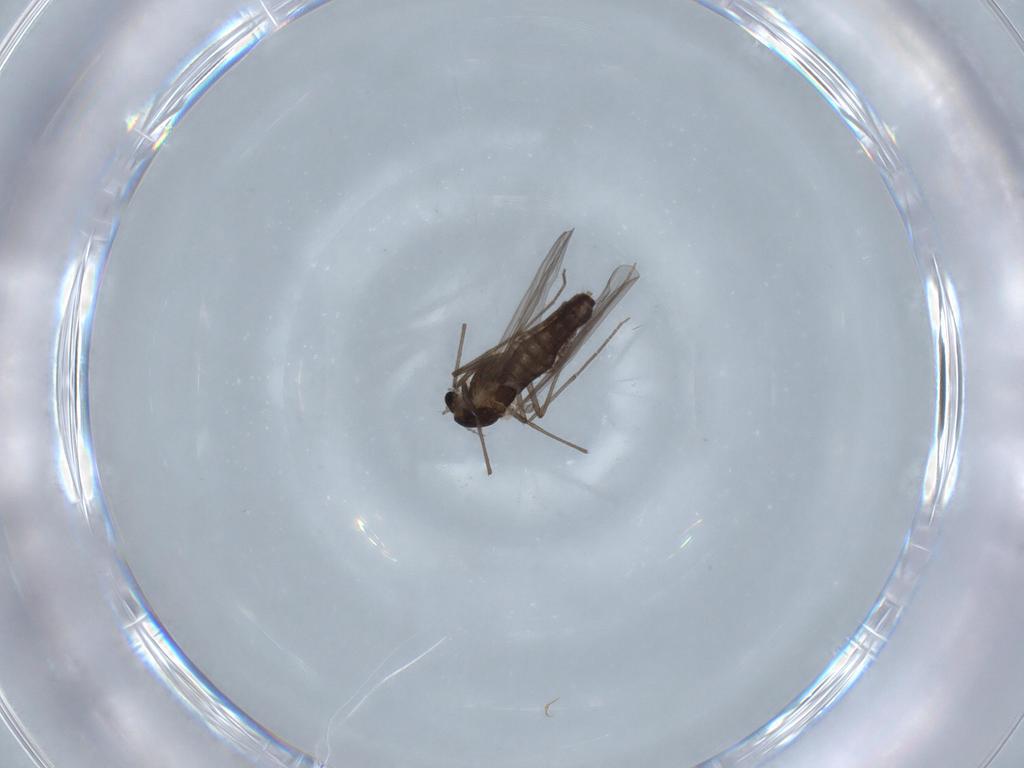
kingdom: Animalia
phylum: Arthropoda
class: Insecta
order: Diptera
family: Chironomidae
